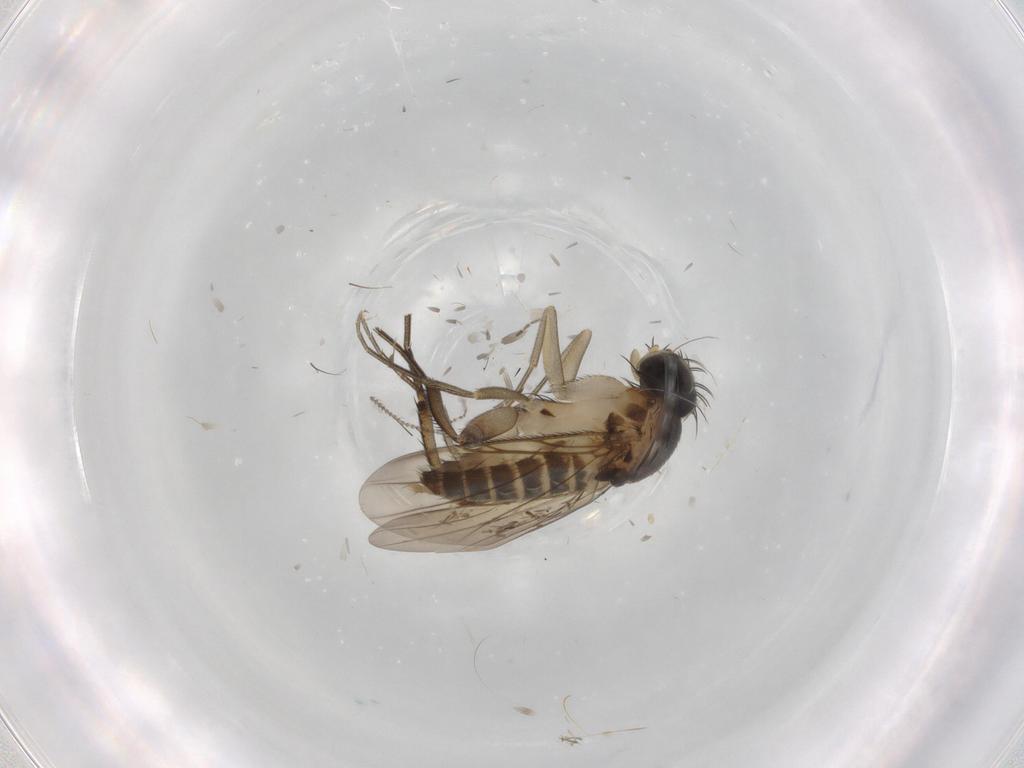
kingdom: Animalia
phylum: Arthropoda
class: Insecta
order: Diptera
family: Phoridae
